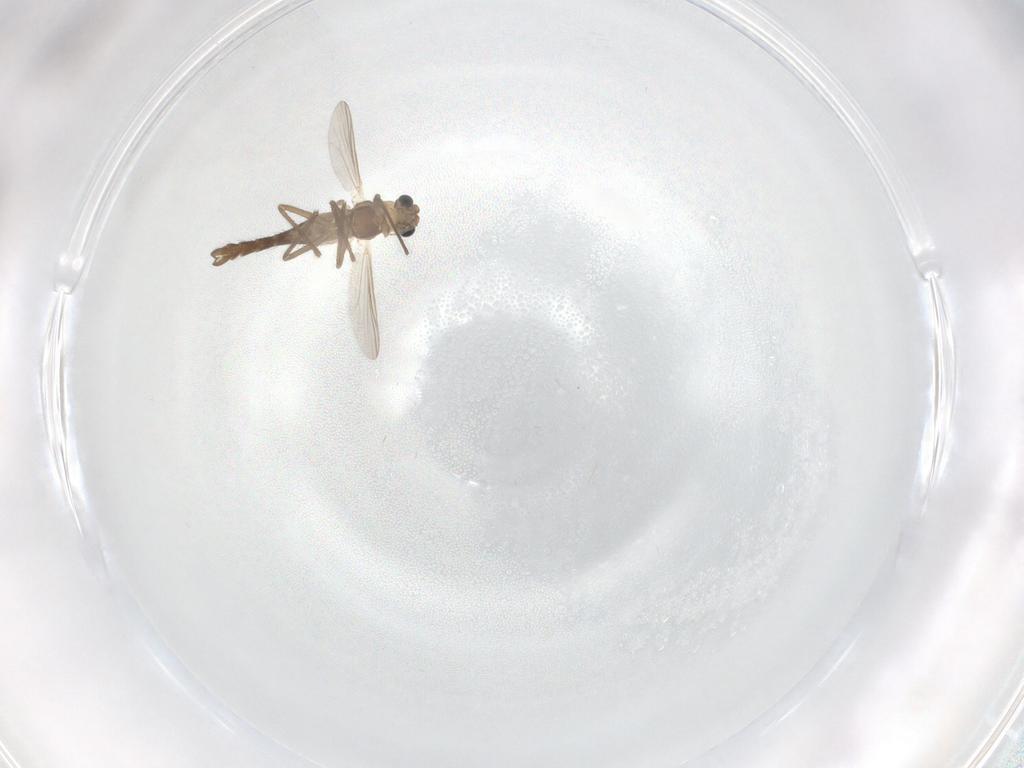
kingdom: Animalia
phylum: Arthropoda
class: Insecta
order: Diptera
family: Chironomidae
